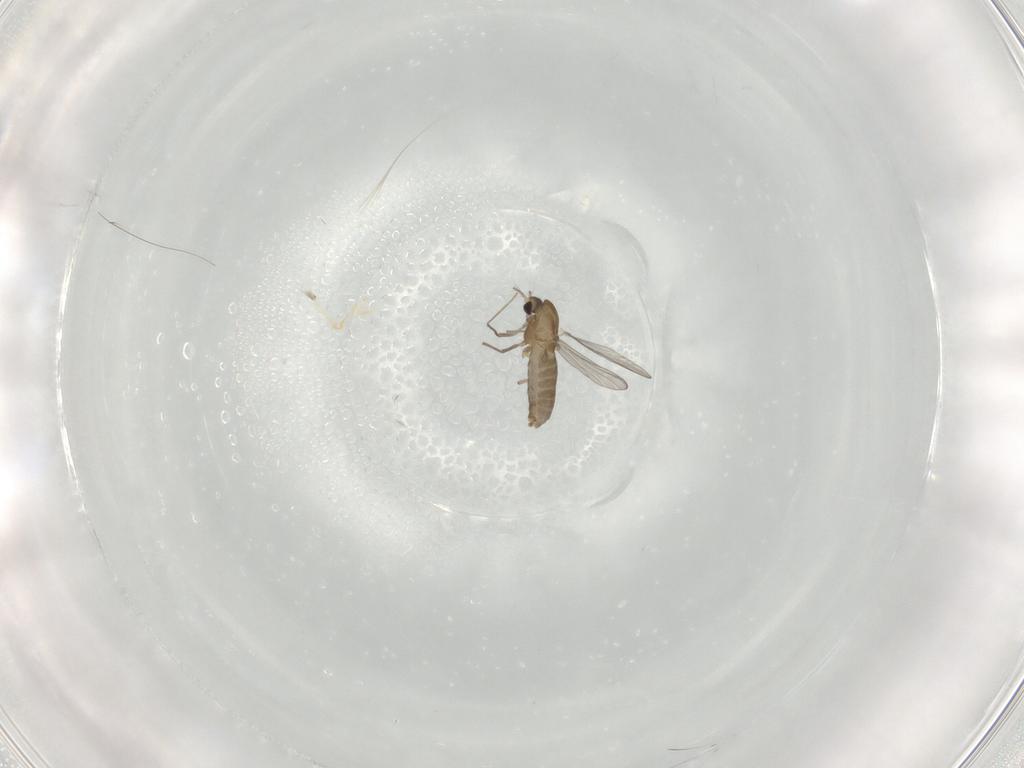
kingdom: Animalia
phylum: Arthropoda
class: Insecta
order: Diptera
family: Chironomidae
